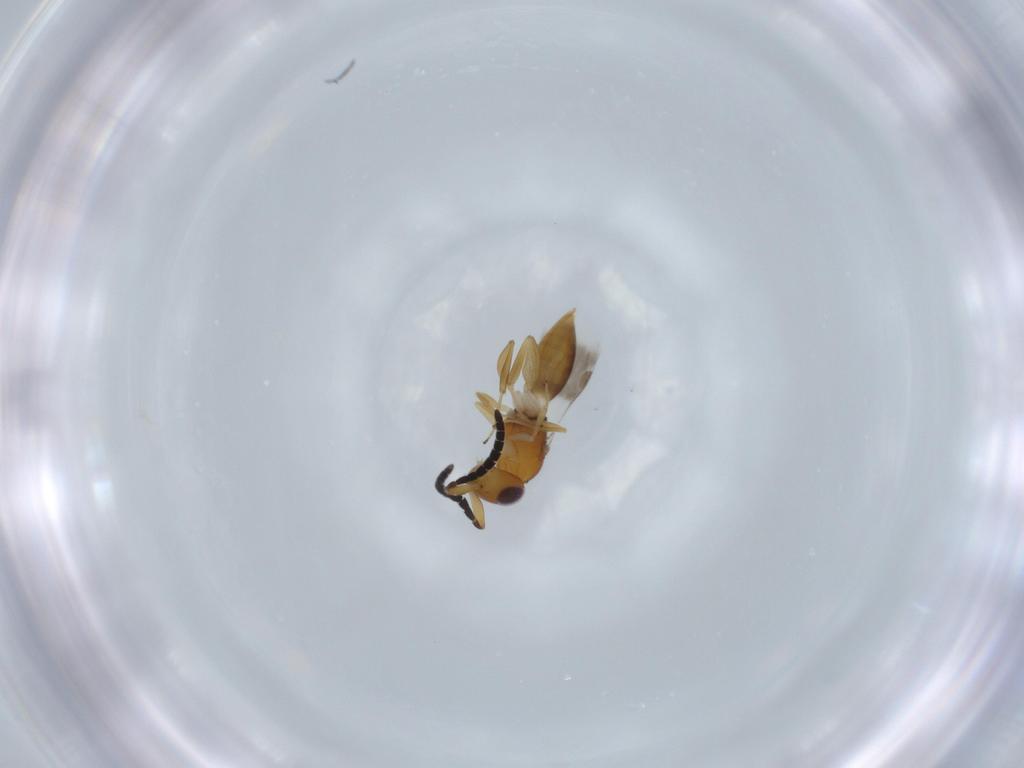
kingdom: Animalia
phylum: Arthropoda
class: Insecta
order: Hymenoptera
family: Megaspilidae
